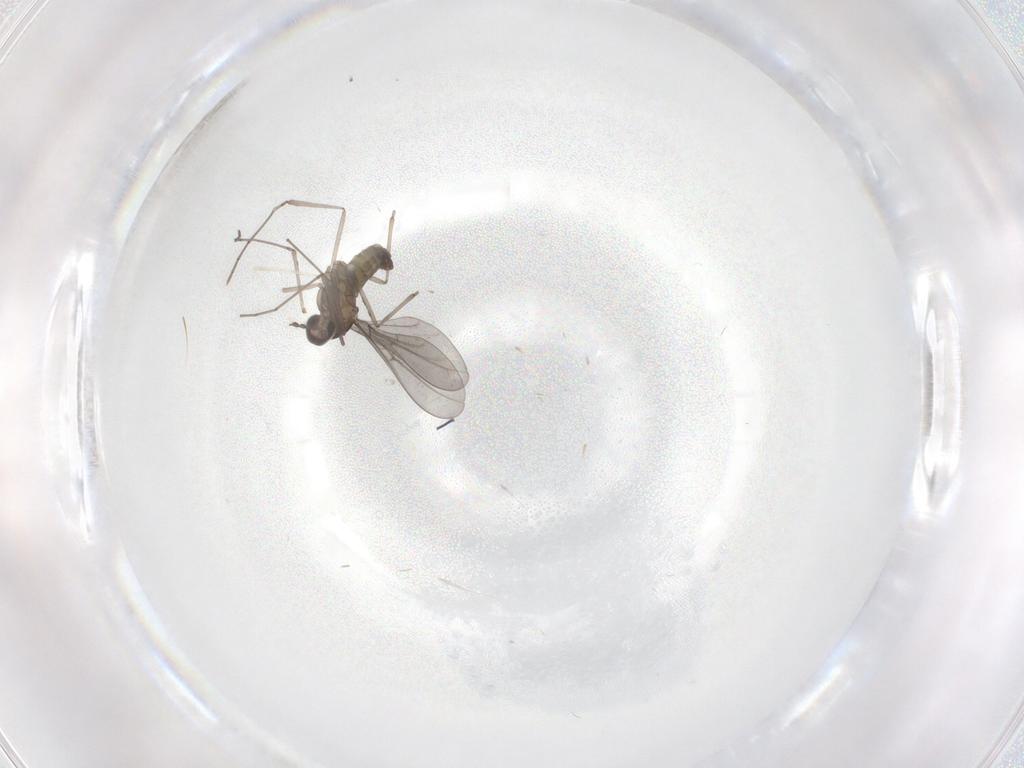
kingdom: Animalia
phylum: Arthropoda
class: Insecta
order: Diptera
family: Cecidomyiidae
